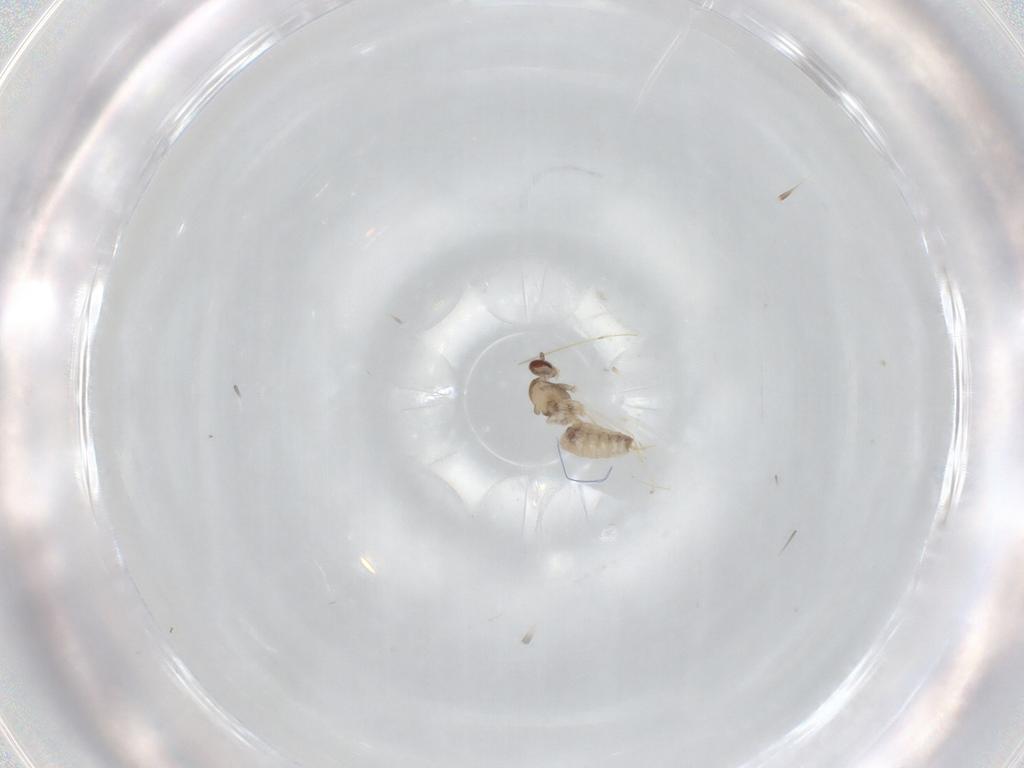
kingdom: Animalia
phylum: Arthropoda
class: Insecta
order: Diptera
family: Cecidomyiidae
